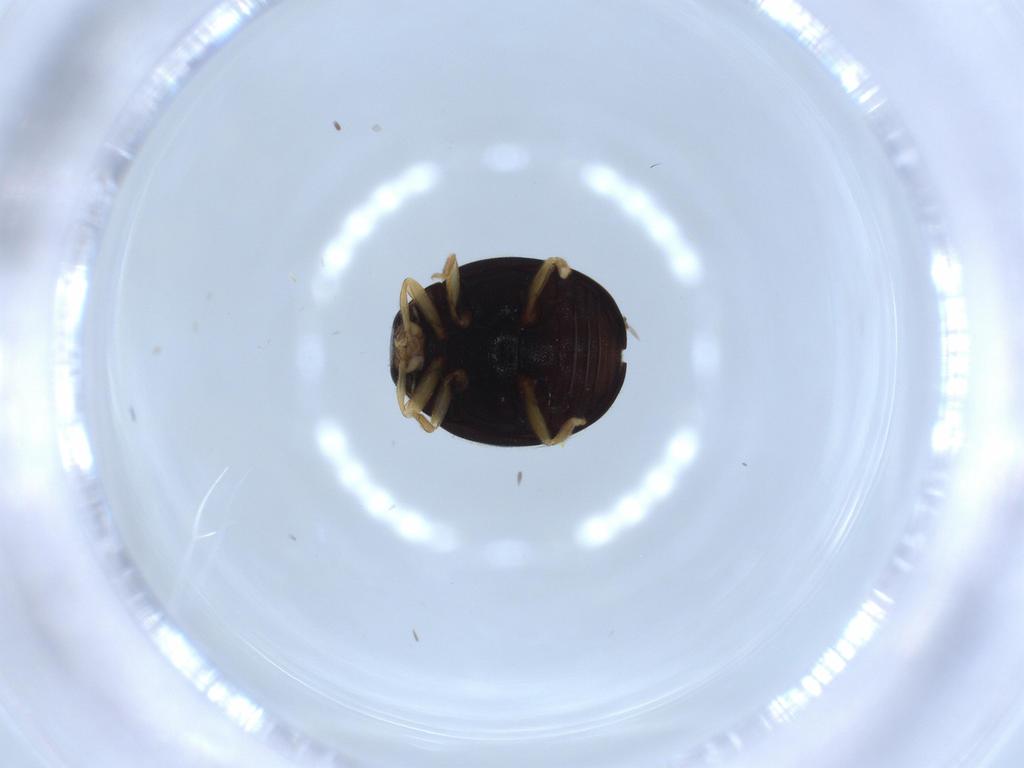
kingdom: Animalia
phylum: Arthropoda
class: Insecta
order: Coleoptera
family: Coccinellidae
